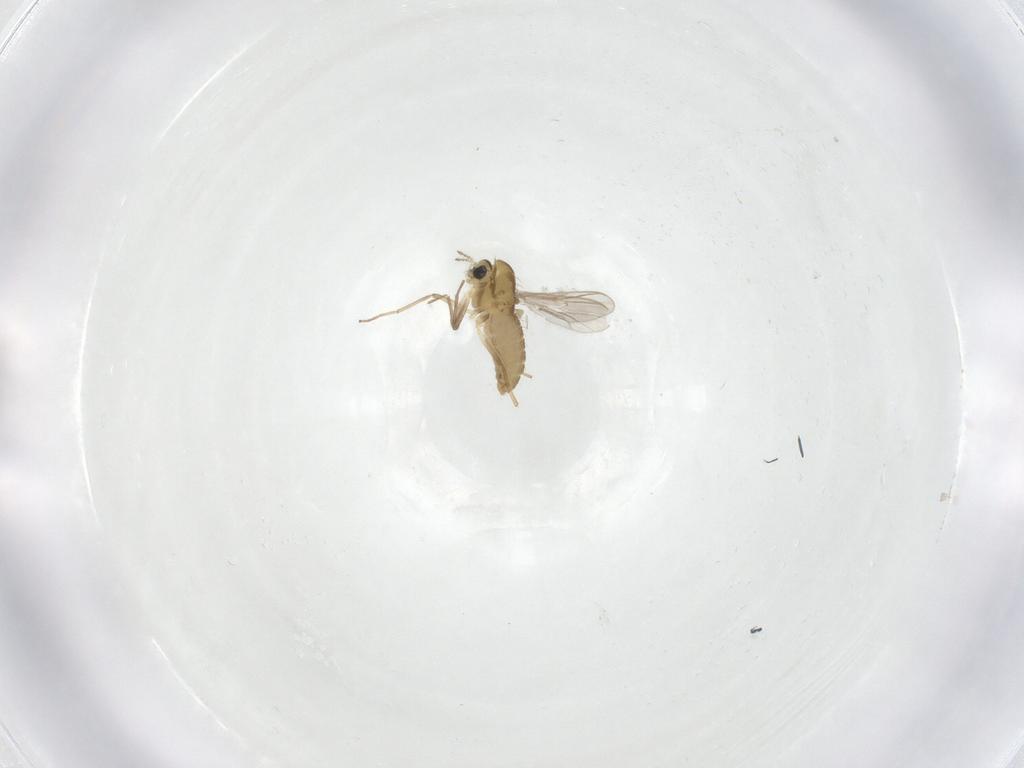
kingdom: Animalia
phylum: Arthropoda
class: Insecta
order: Diptera
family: Chironomidae
